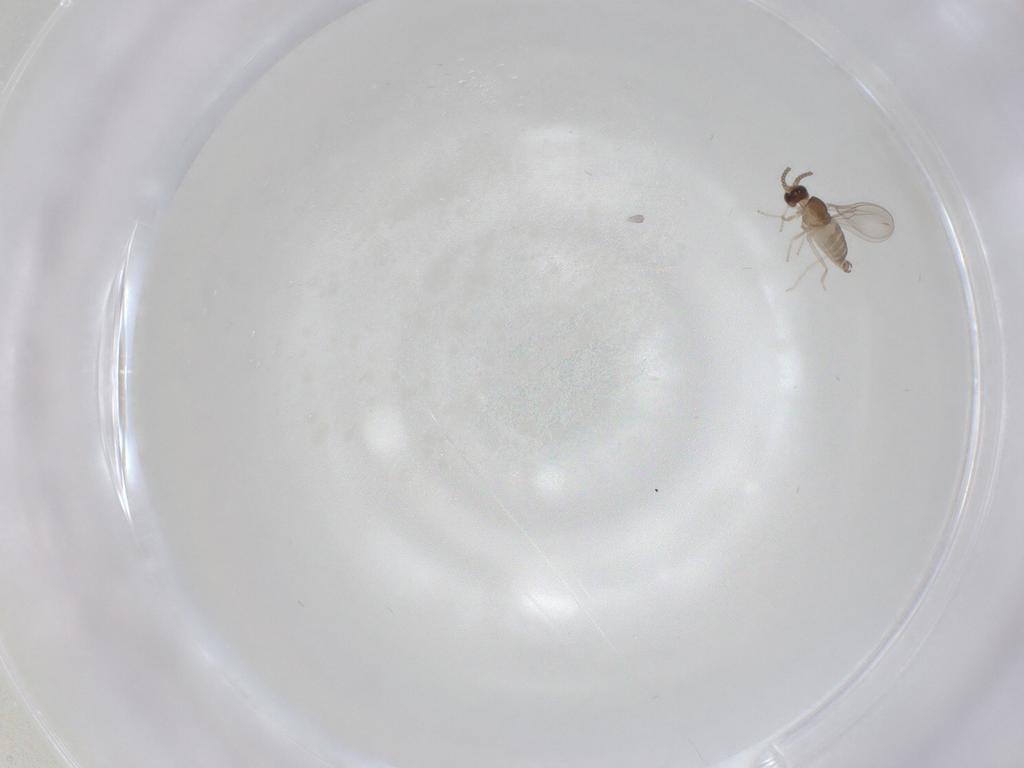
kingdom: Animalia
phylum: Arthropoda
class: Insecta
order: Diptera
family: Cecidomyiidae
